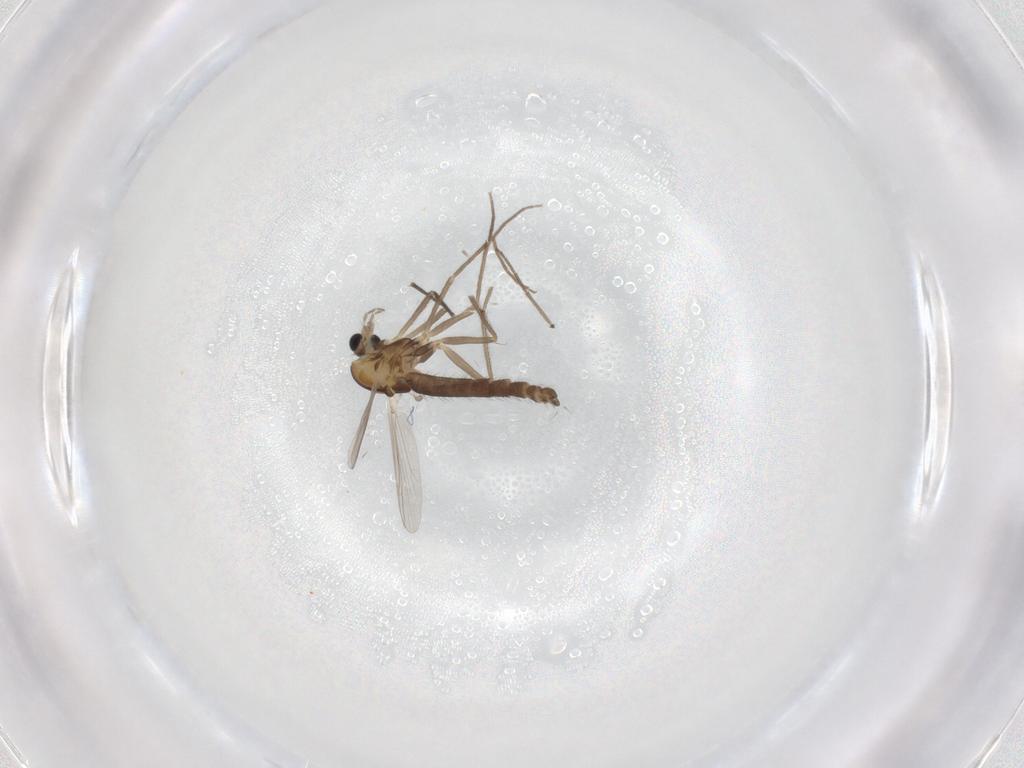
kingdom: Animalia
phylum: Arthropoda
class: Insecta
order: Diptera
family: Chironomidae
